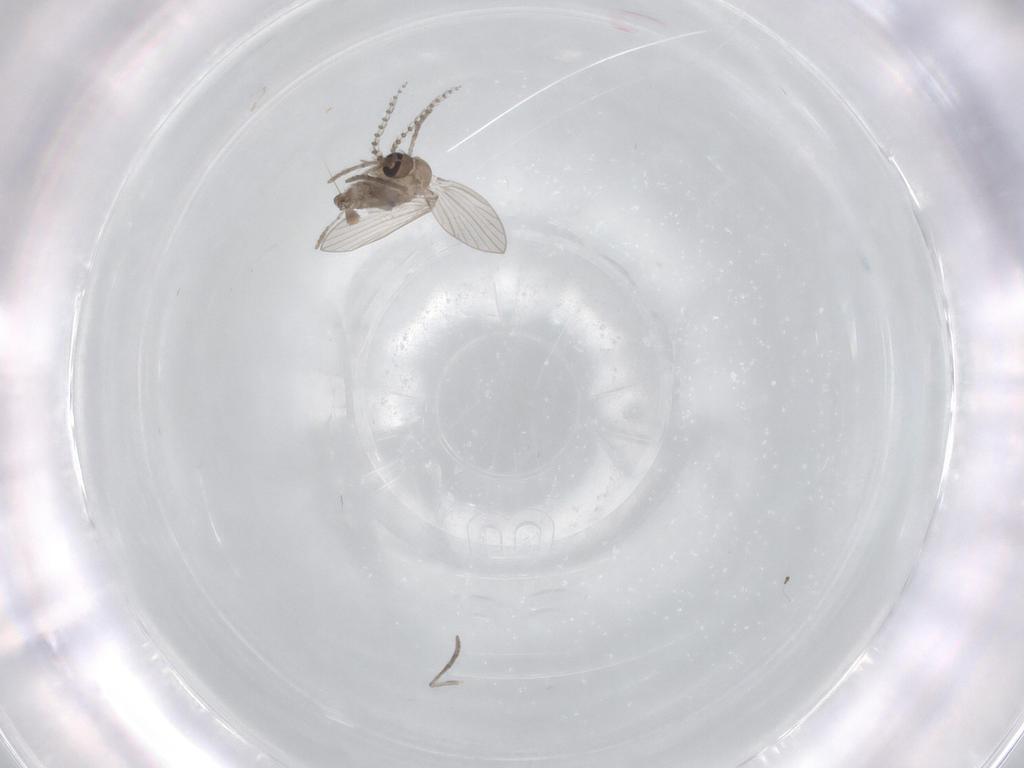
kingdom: Animalia
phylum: Arthropoda
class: Insecta
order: Diptera
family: Psychodidae
